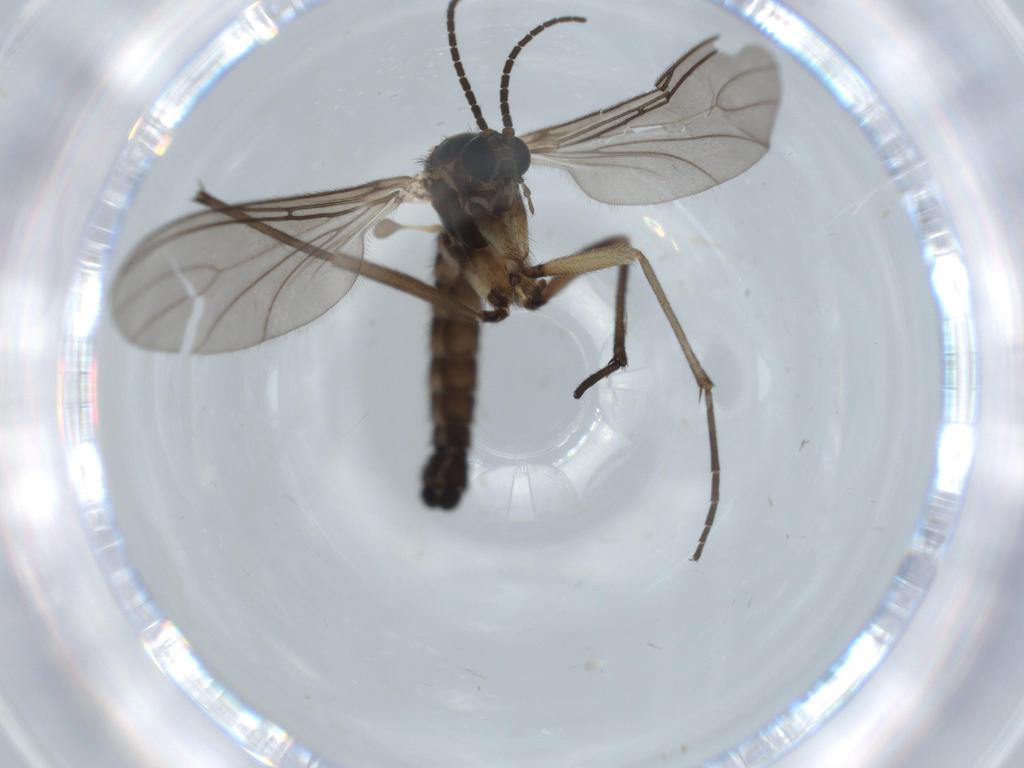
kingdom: Animalia
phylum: Arthropoda
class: Insecta
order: Diptera
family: Sciaridae
